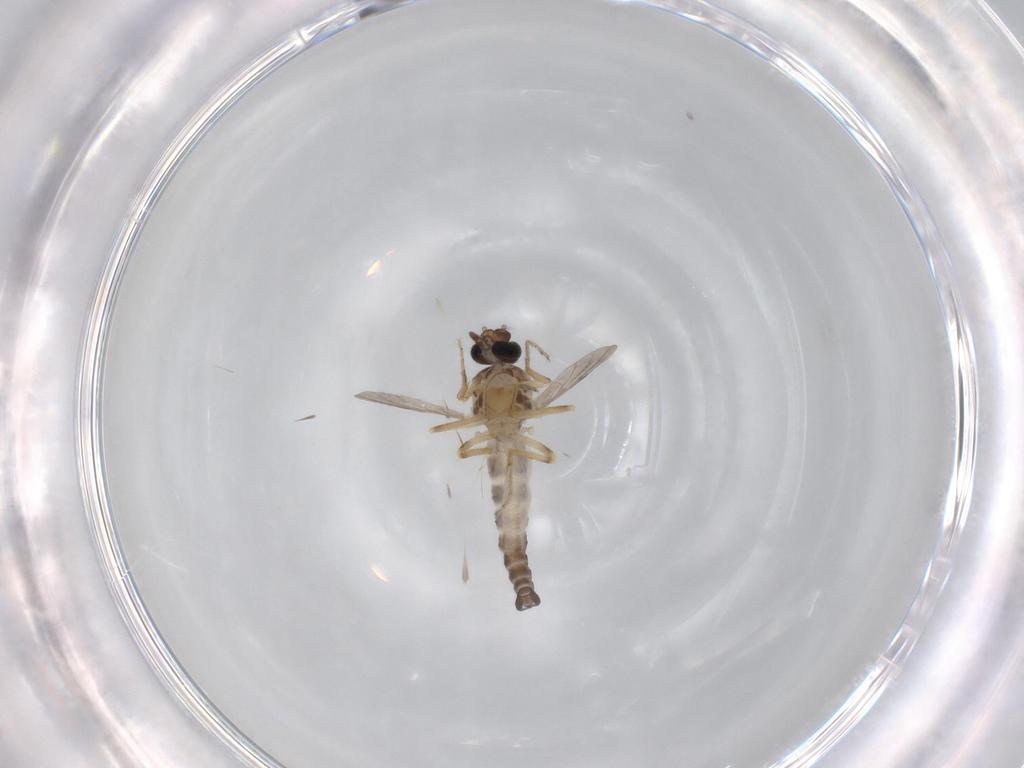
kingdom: Animalia
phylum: Arthropoda
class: Insecta
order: Diptera
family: Ceratopogonidae
